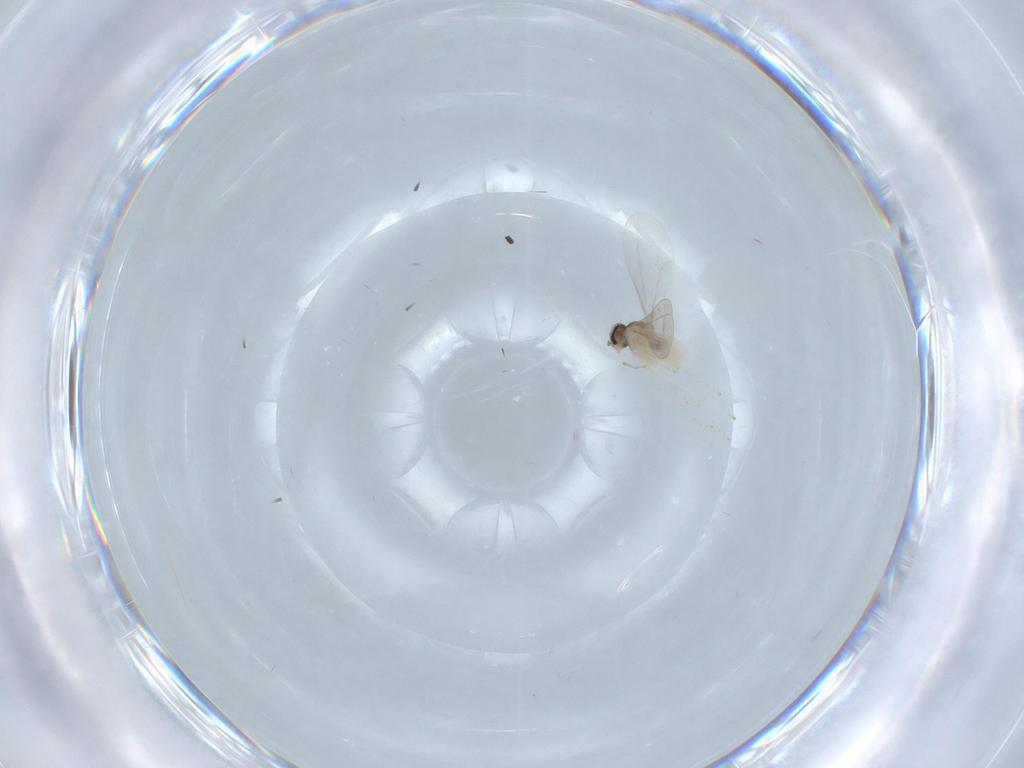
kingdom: Animalia
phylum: Arthropoda
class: Insecta
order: Diptera
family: Cecidomyiidae
